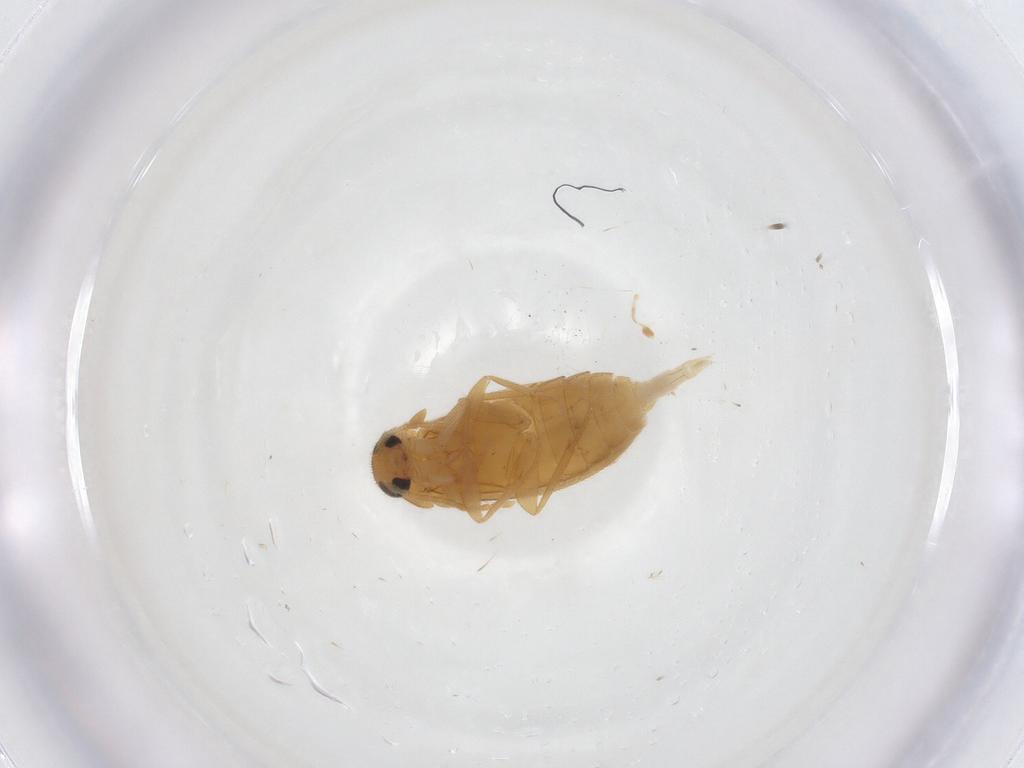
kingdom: Animalia
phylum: Arthropoda
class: Insecta
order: Coleoptera
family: Scraptiidae
